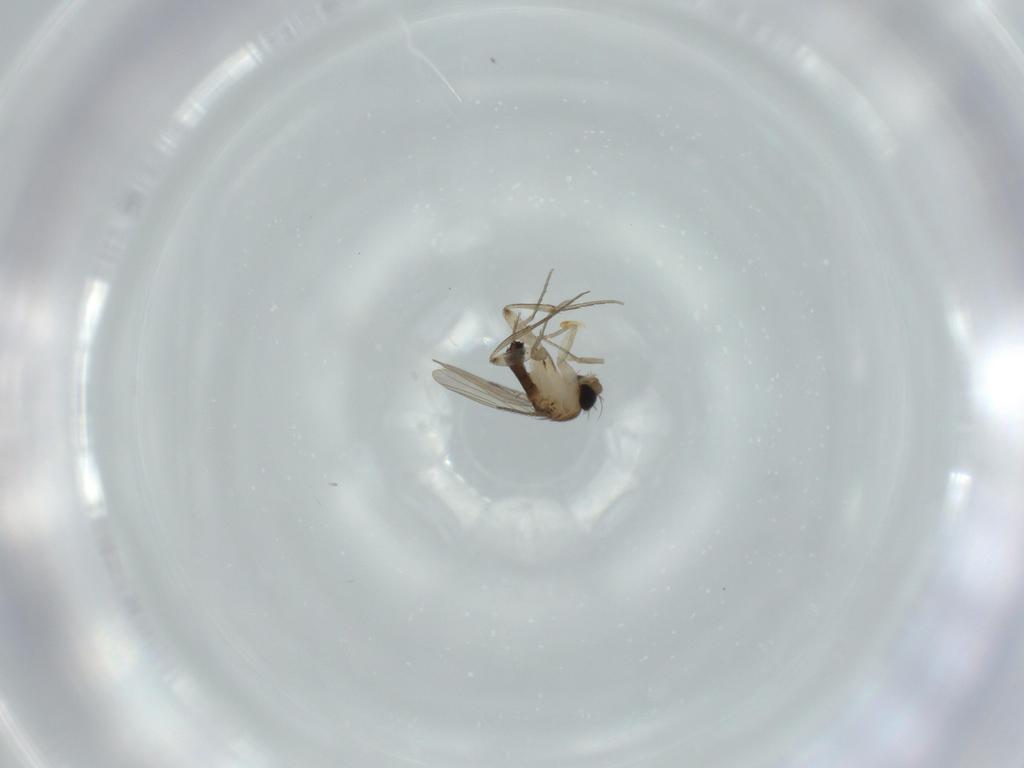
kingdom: Animalia
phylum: Arthropoda
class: Insecta
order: Diptera
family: Phoridae
